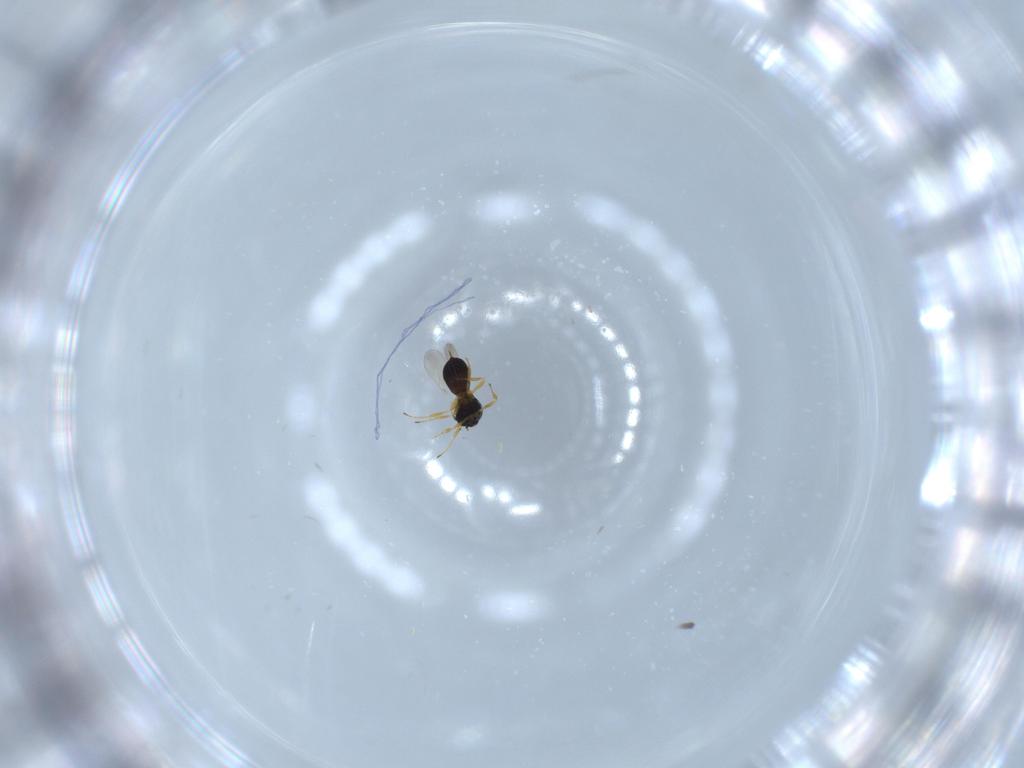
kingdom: Animalia
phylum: Arthropoda
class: Insecta
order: Hymenoptera
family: Scelionidae
